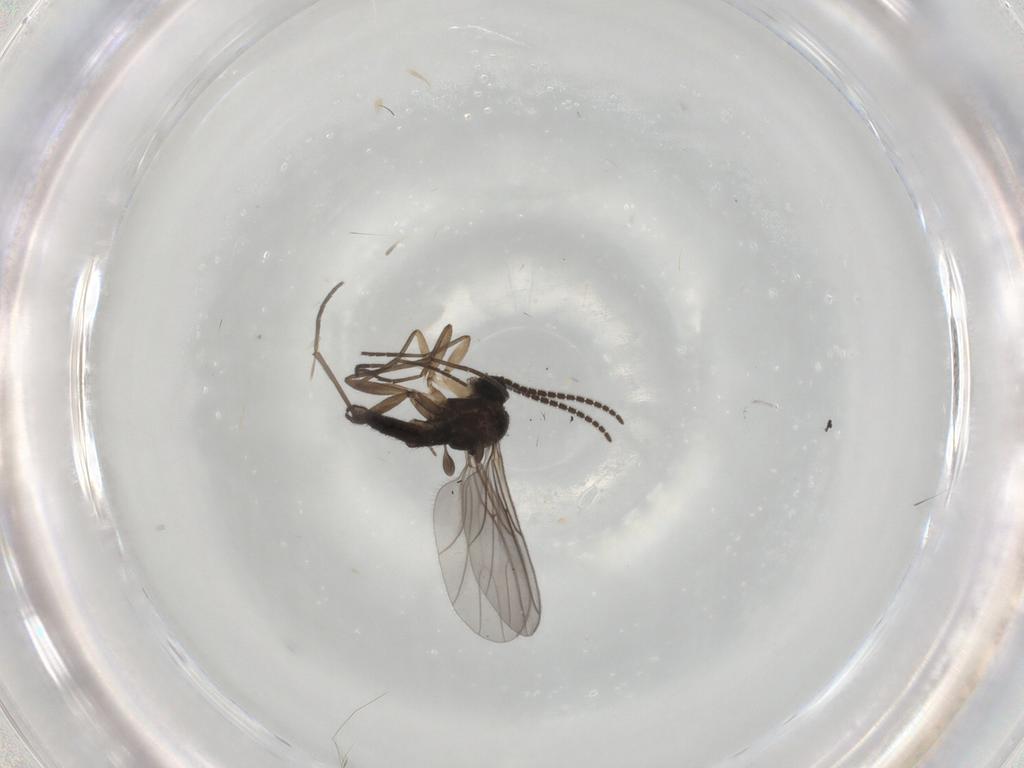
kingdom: Animalia
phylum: Arthropoda
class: Insecta
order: Diptera
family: Sciaridae
